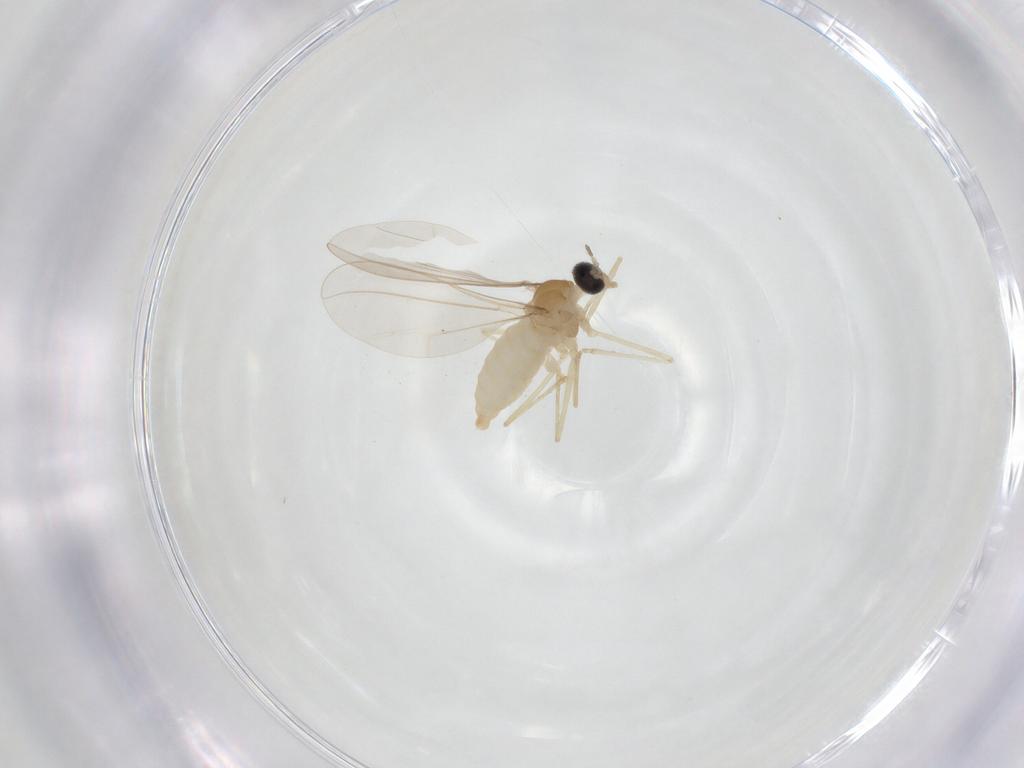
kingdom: Animalia
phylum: Arthropoda
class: Insecta
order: Diptera
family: Cecidomyiidae
